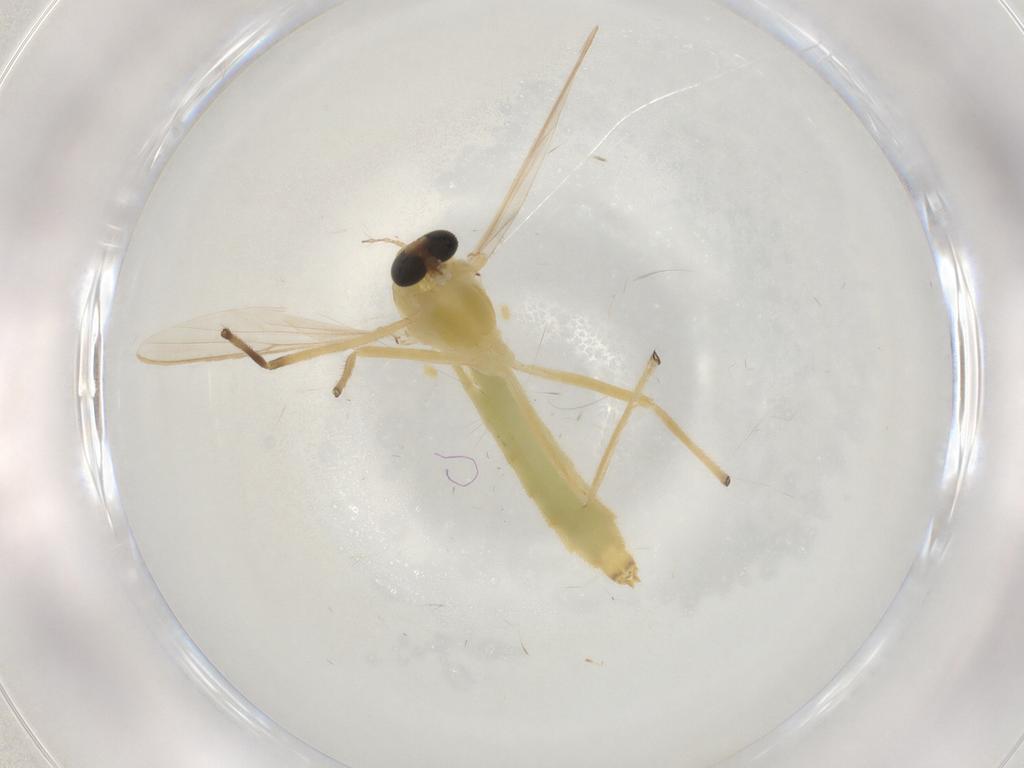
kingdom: Animalia
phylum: Arthropoda
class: Insecta
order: Diptera
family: Chironomidae
